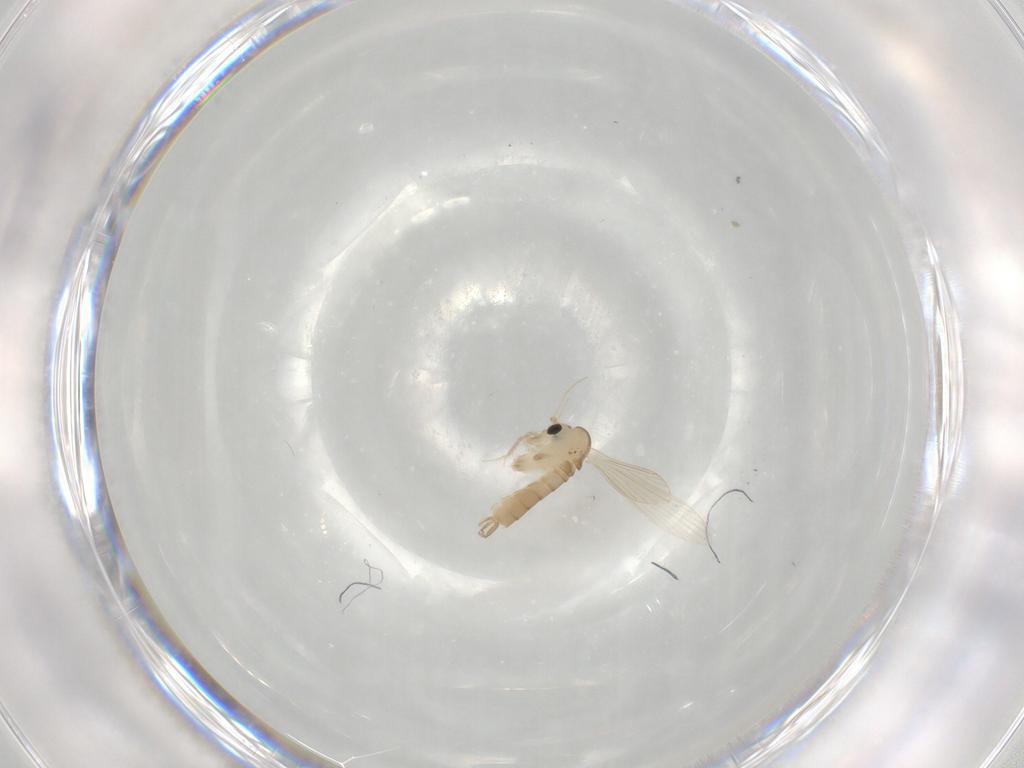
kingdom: Animalia
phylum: Arthropoda
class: Insecta
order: Diptera
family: Psychodidae
